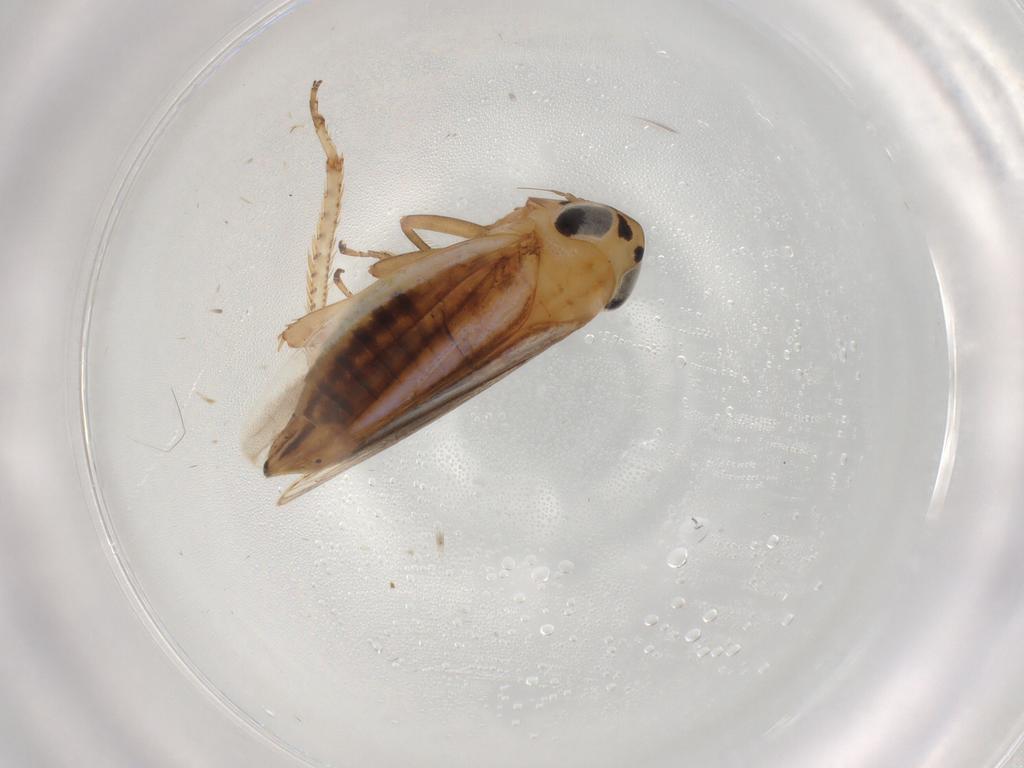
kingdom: Animalia
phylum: Arthropoda
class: Insecta
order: Hemiptera
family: Cicadellidae
